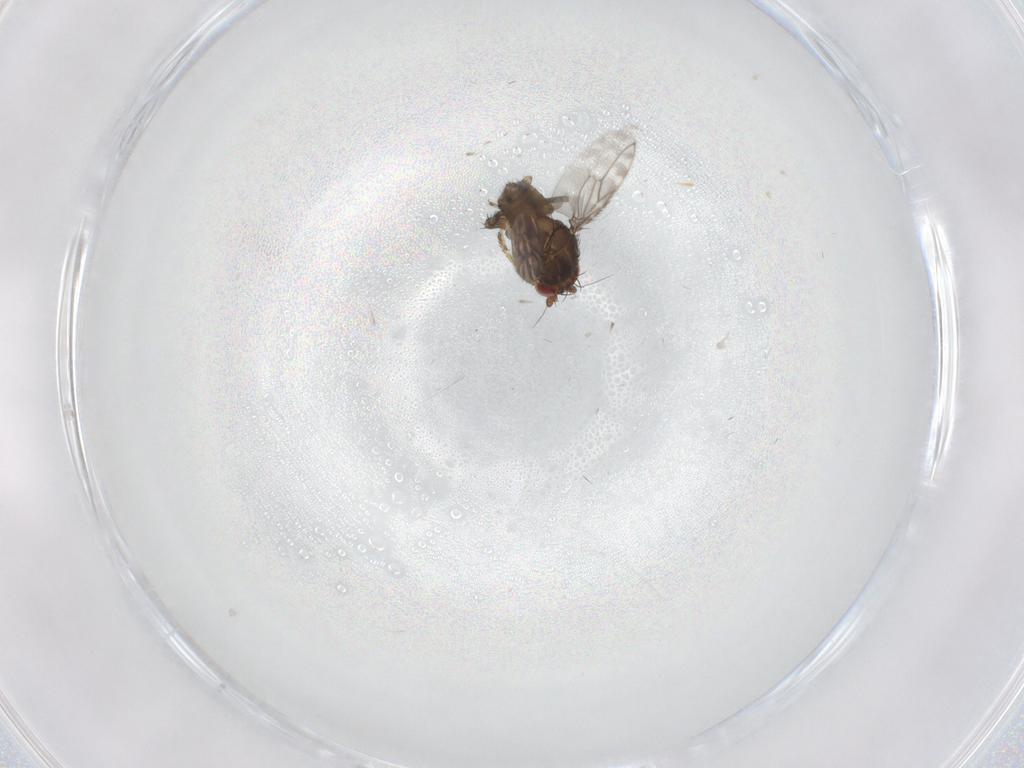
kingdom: Animalia
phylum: Arthropoda
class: Insecta
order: Diptera
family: Sphaeroceridae
